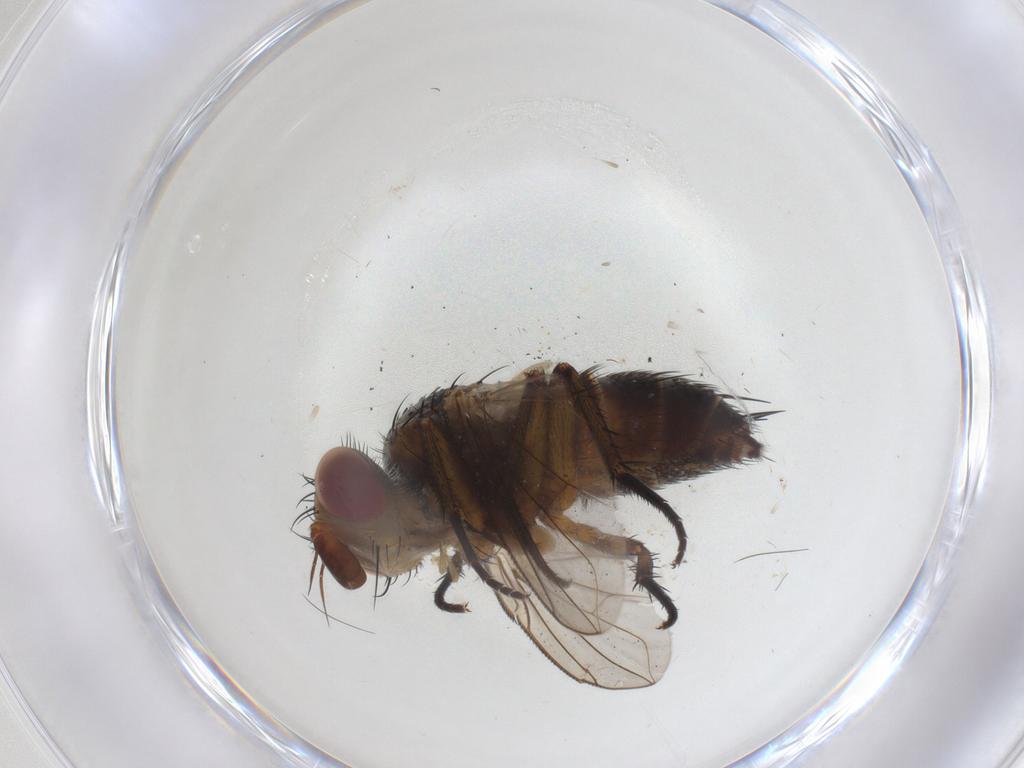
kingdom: Animalia
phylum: Arthropoda
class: Insecta
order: Diptera
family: Tachinidae
